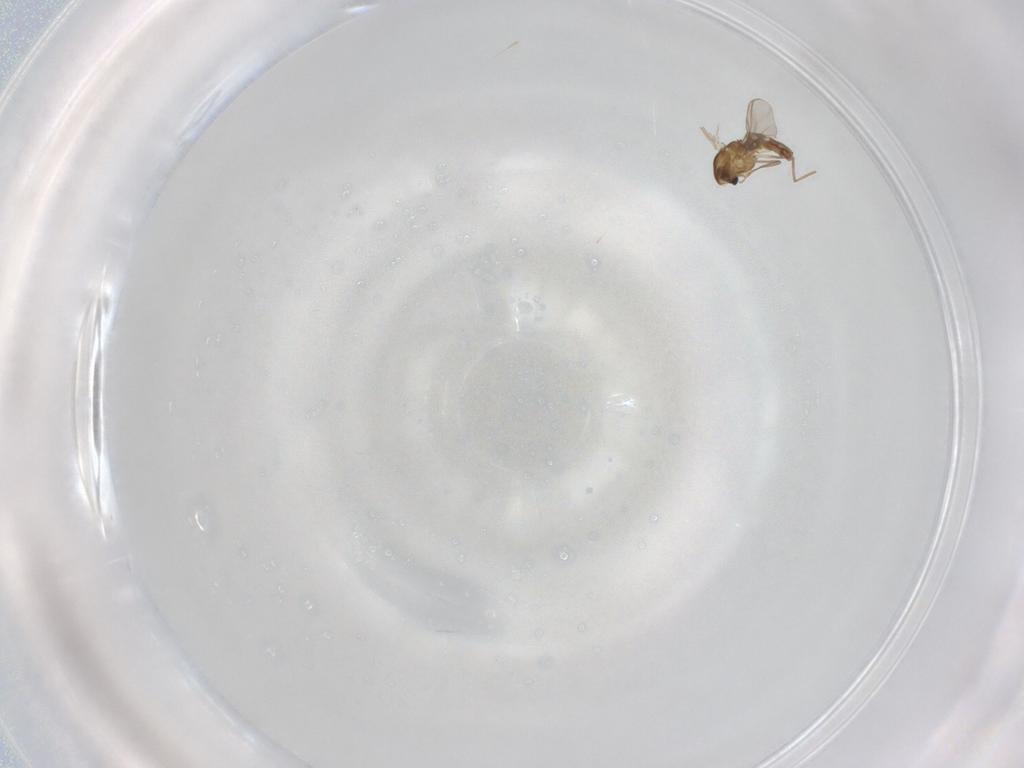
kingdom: Animalia
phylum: Arthropoda
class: Insecta
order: Diptera
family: Chironomidae
